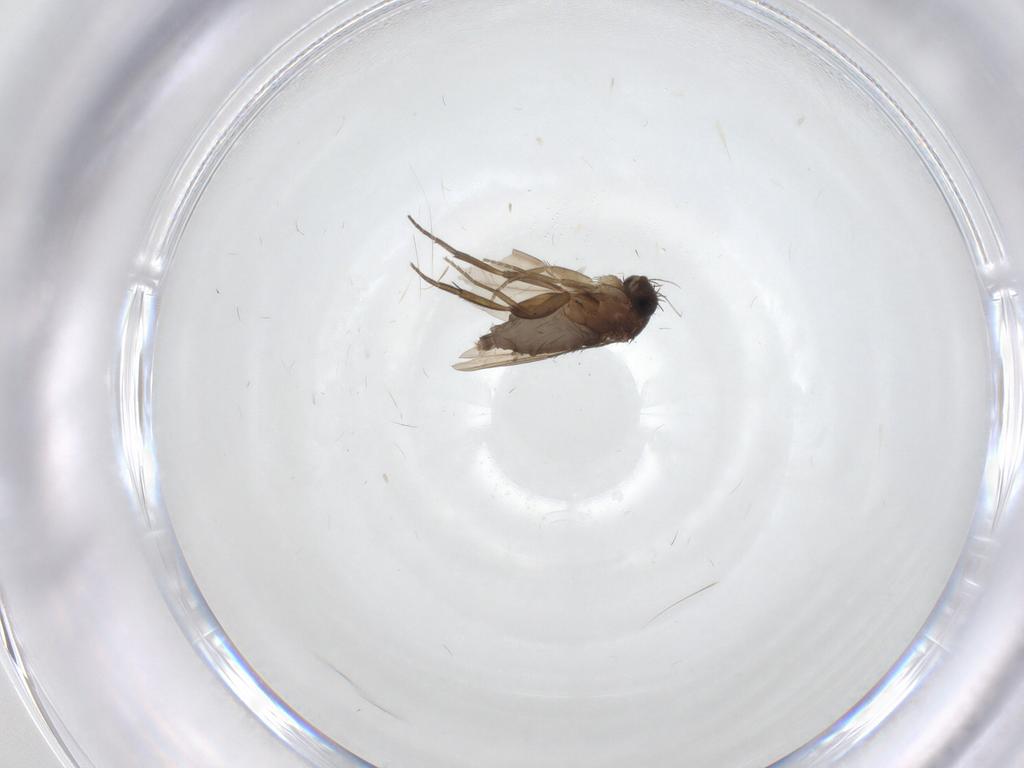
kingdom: Animalia
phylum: Arthropoda
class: Insecta
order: Diptera
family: Phoridae
